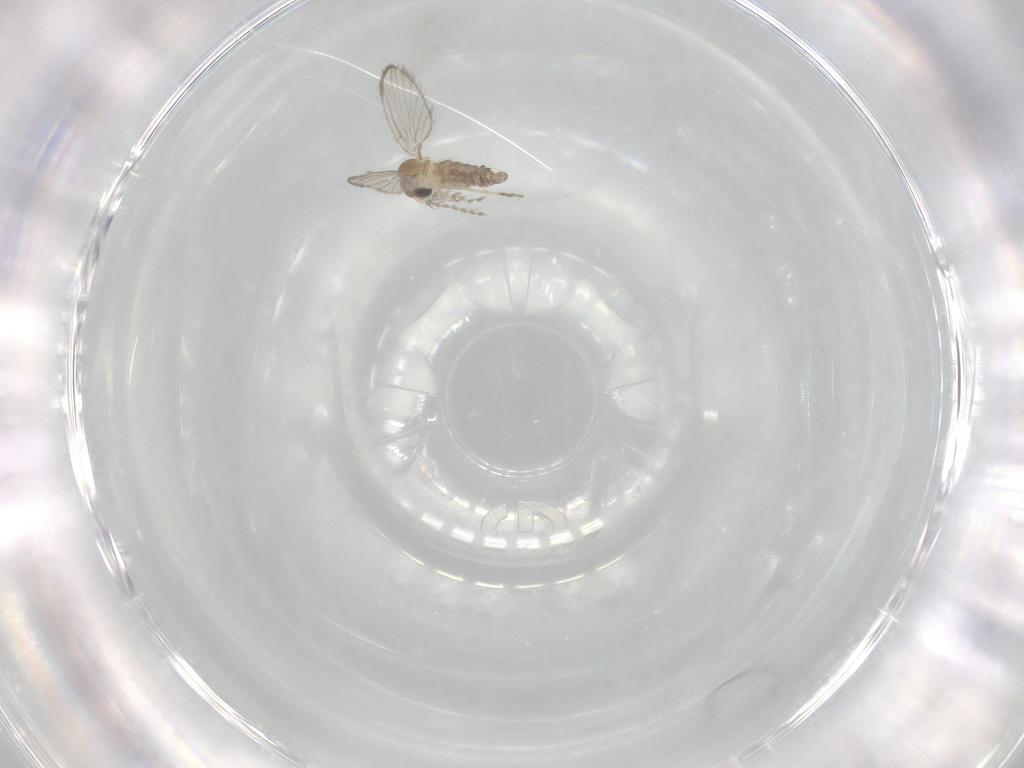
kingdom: Animalia
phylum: Arthropoda
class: Insecta
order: Diptera
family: Psychodidae
